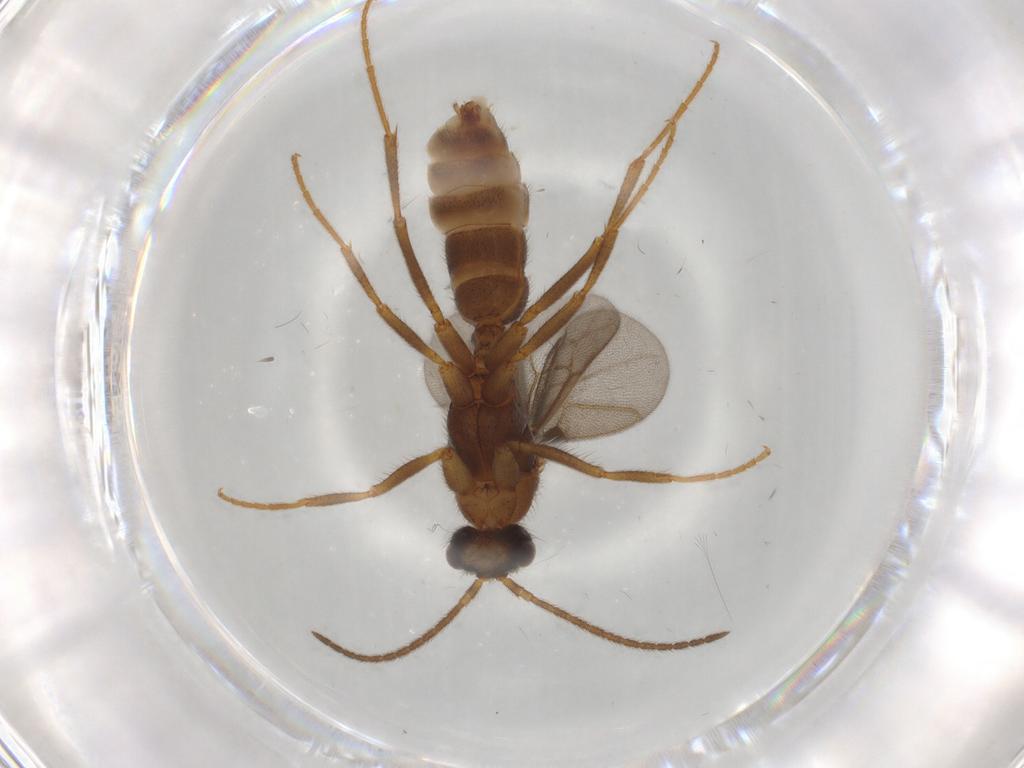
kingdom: Animalia
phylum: Arthropoda
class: Insecta
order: Hymenoptera
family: Formicidae
